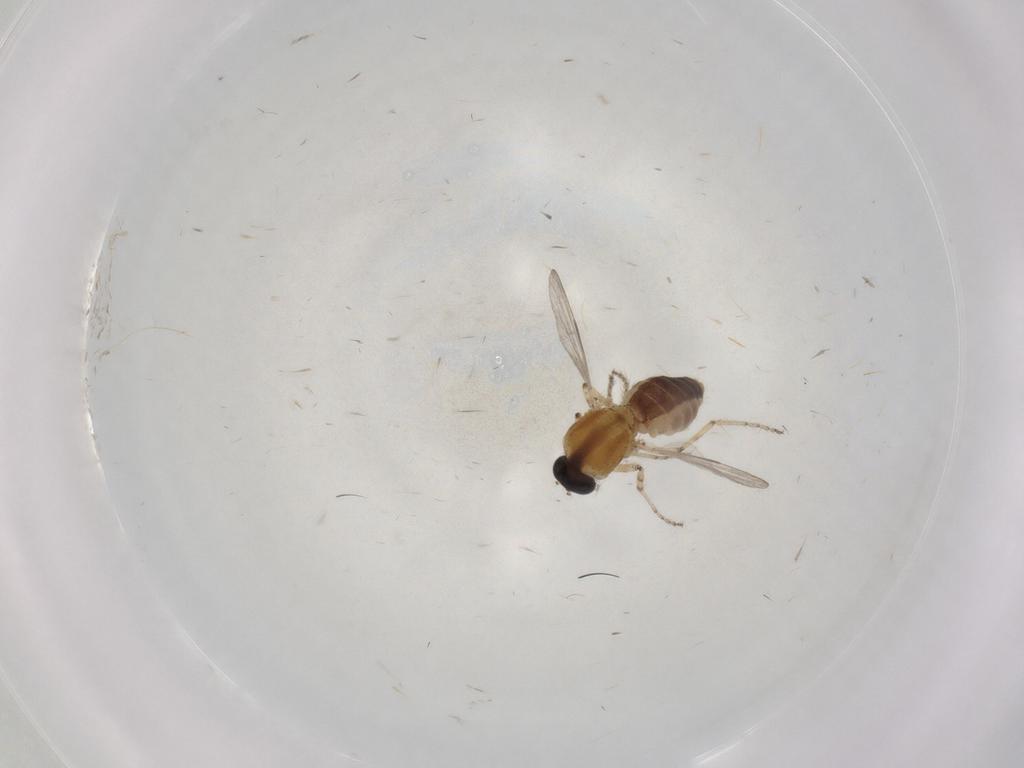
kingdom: Animalia
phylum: Arthropoda
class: Insecta
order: Diptera
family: Ceratopogonidae
